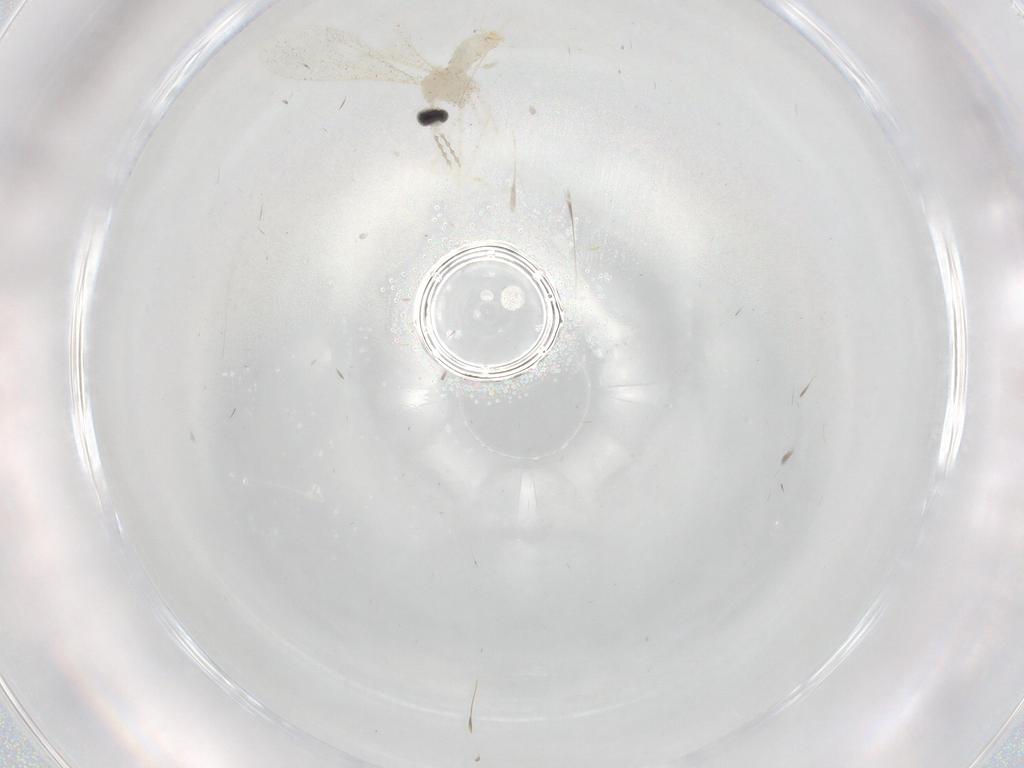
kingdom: Animalia
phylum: Arthropoda
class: Insecta
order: Diptera
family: Cecidomyiidae
